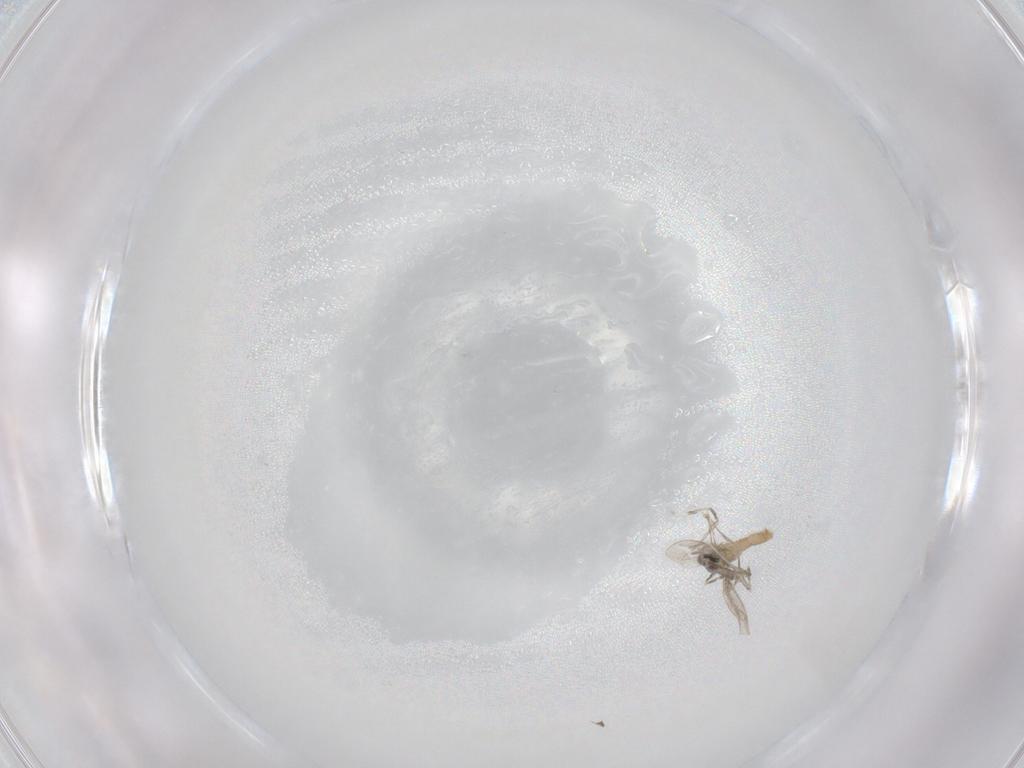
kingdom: Animalia
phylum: Arthropoda
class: Insecta
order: Diptera
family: Cecidomyiidae
